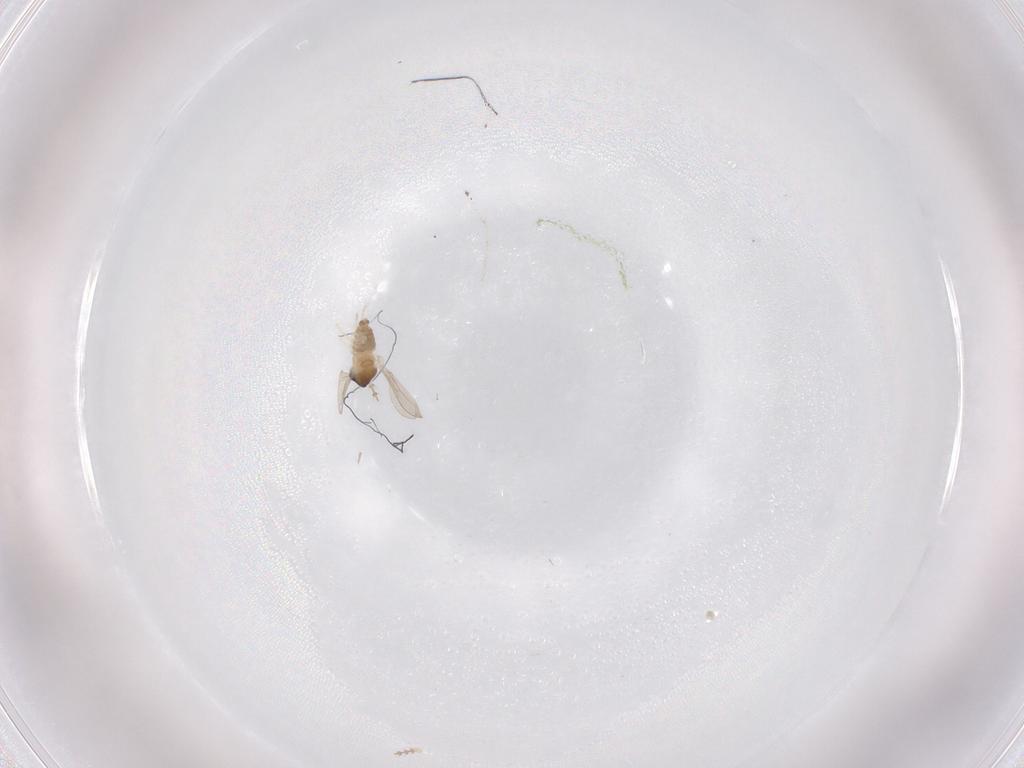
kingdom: Animalia
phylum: Arthropoda
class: Insecta
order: Diptera
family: Cecidomyiidae
